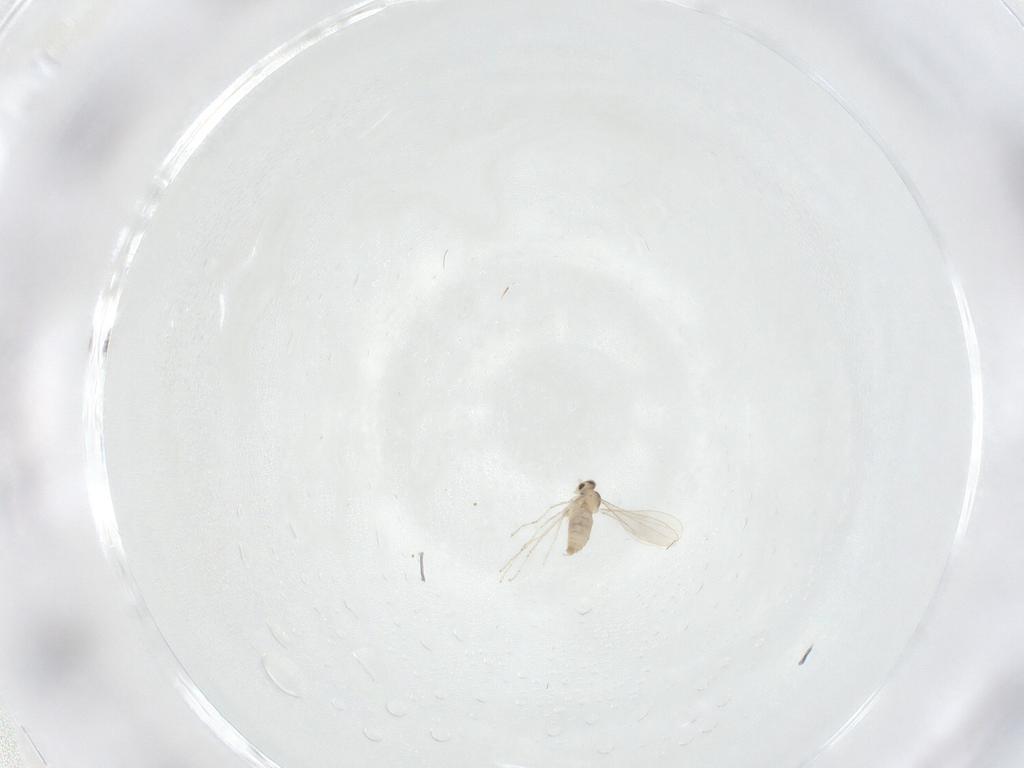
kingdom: Animalia
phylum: Arthropoda
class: Insecta
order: Diptera
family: Cecidomyiidae
